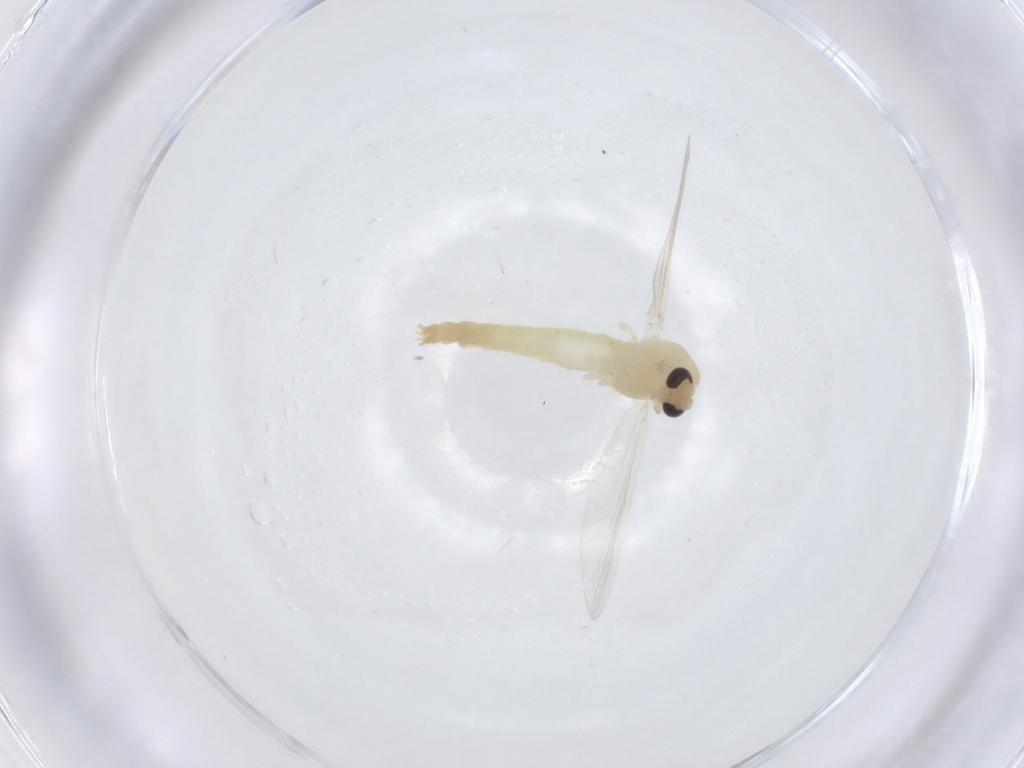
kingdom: Animalia
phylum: Arthropoda
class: Insecta
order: Diptera
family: Chironomidae
